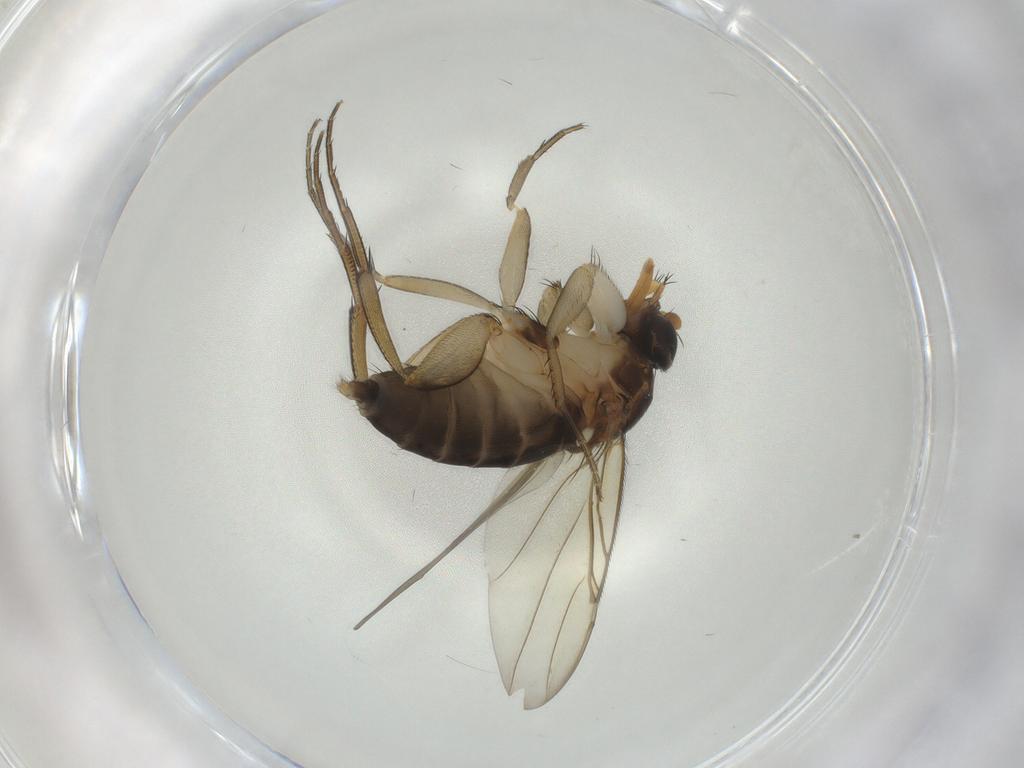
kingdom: Animalia
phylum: Arthropoda
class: Insecta
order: Diptera
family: Phoridae
